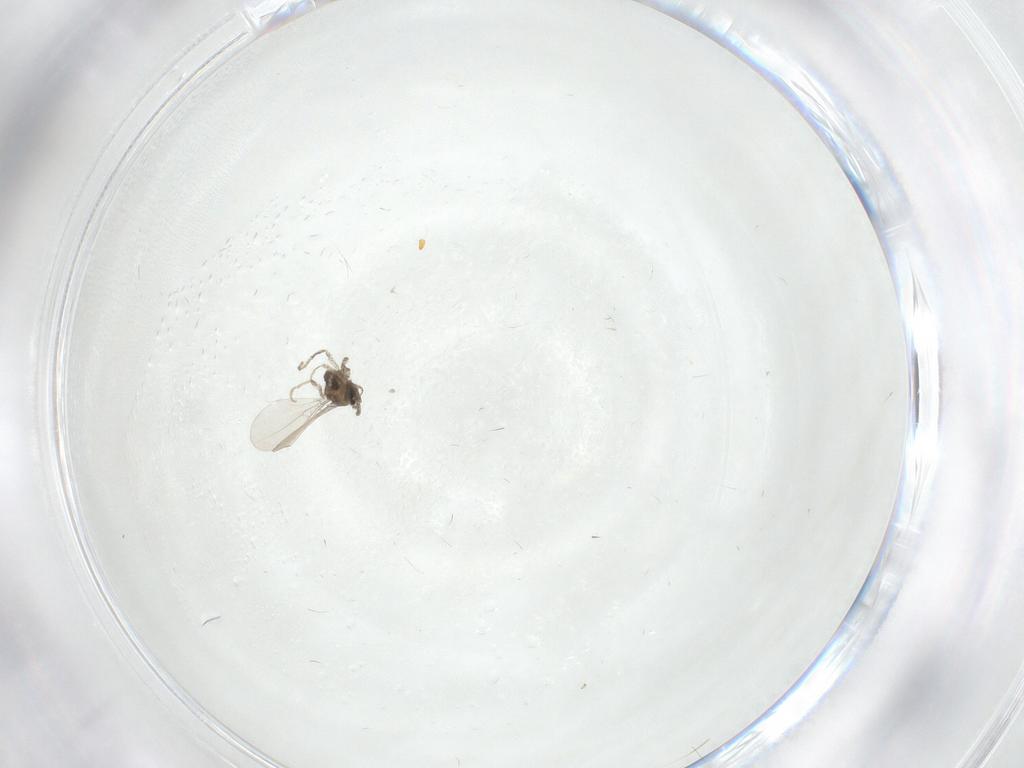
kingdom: Animalia
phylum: Arthropoda
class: Insecta
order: Diptera
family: Cecidomyiidae
